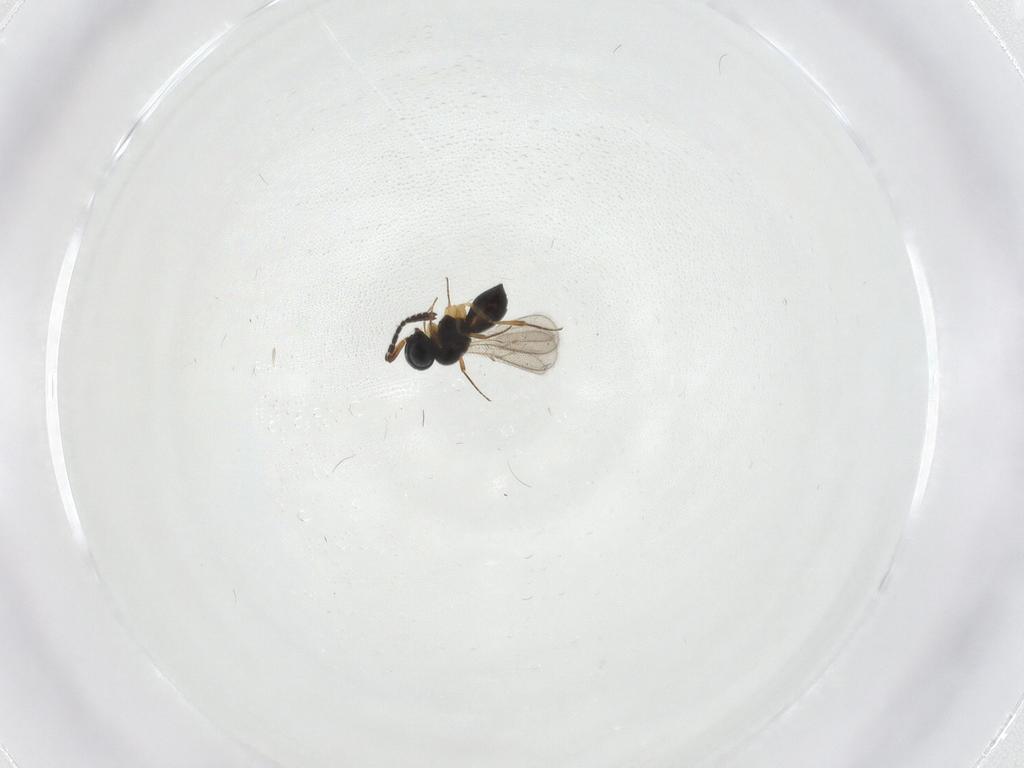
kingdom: Animalia
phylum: Arthropoda
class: Insecta
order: Hymenoptera
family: Scelionidae
